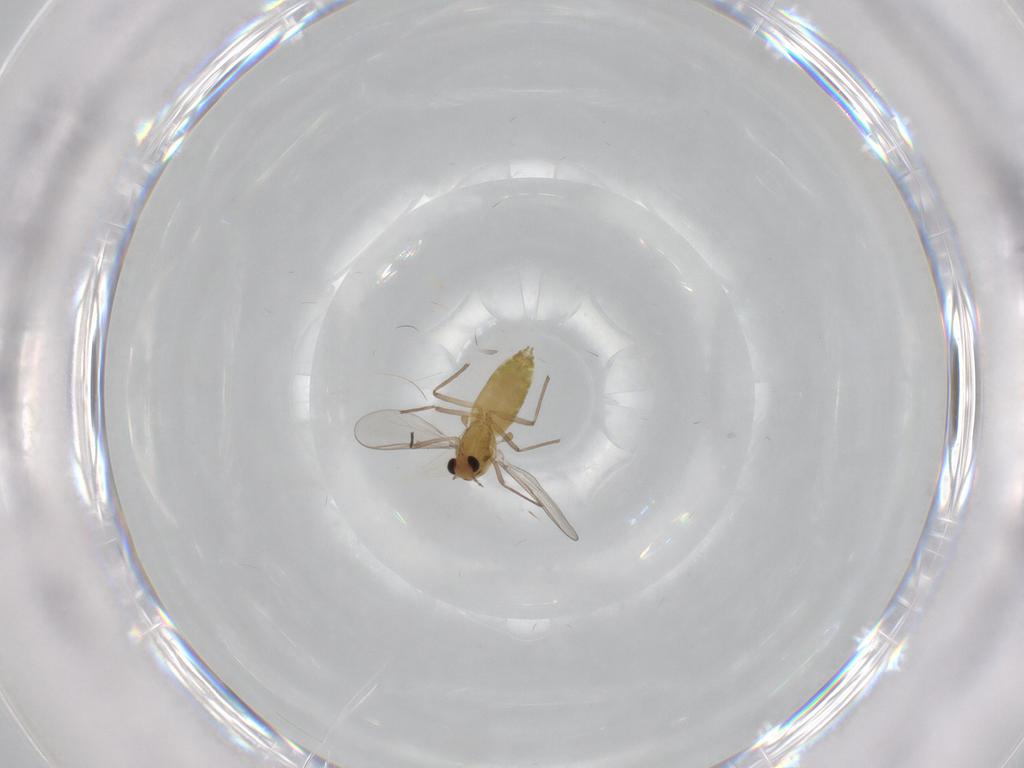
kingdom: Animalia
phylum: Arthropoda
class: Insecta
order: Diptera
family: Chironomidae
